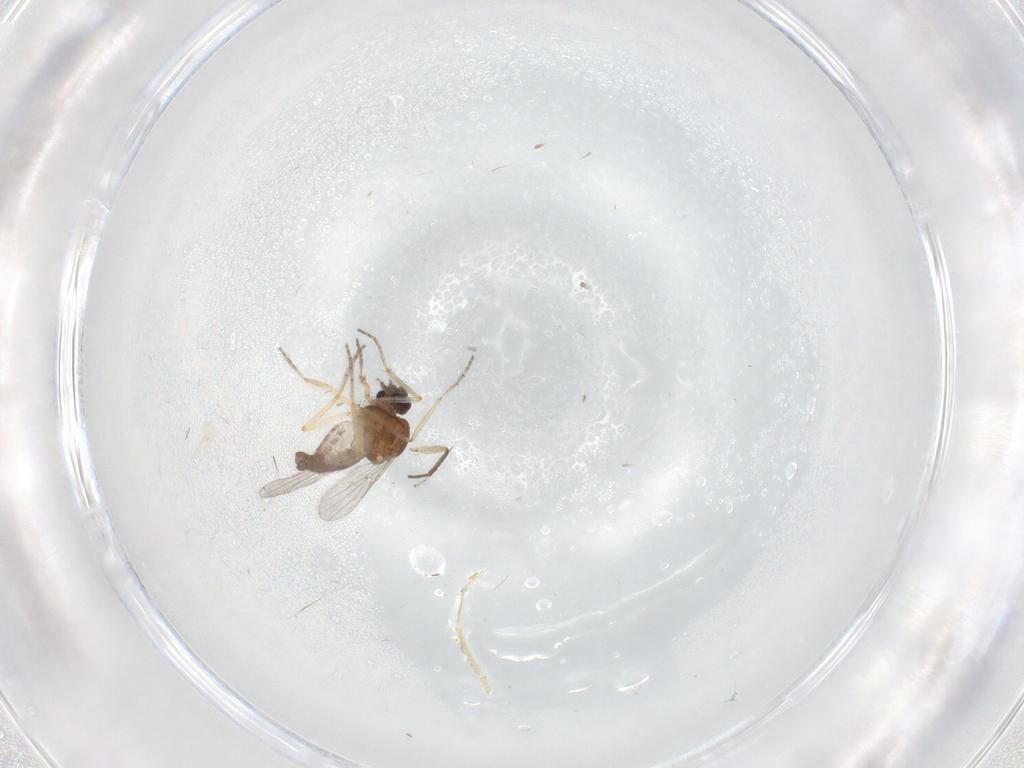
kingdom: Animalia
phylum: Arthropoda
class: Insecta
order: Diptera
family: Ceratopogonidae
